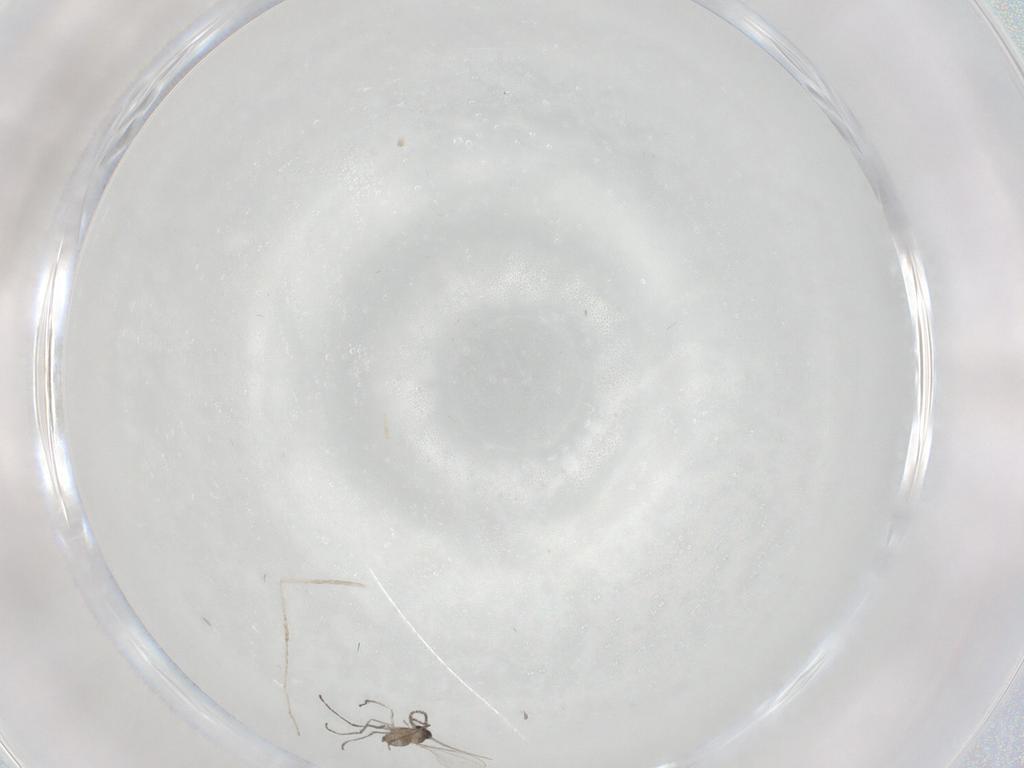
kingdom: Animalia
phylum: Arthropoda
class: Insecta
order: Diptera
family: Cecidomyiidae
